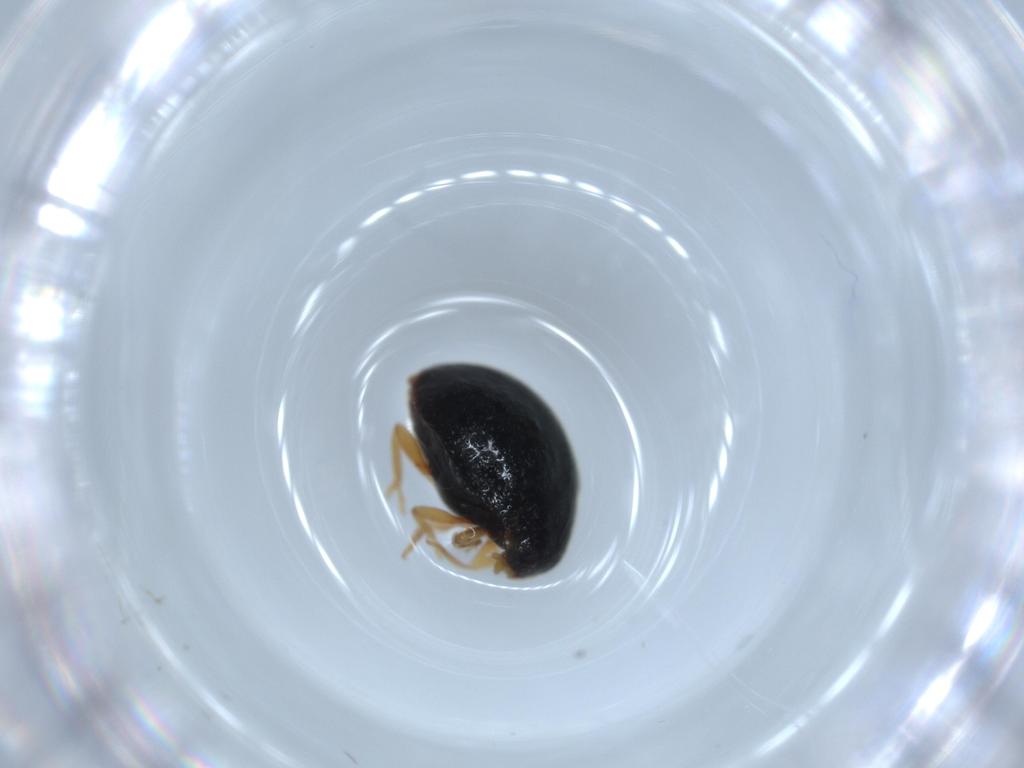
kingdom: Animalia
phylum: Arthropoda
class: Insecta
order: Coleoptera
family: Coccinellidae
